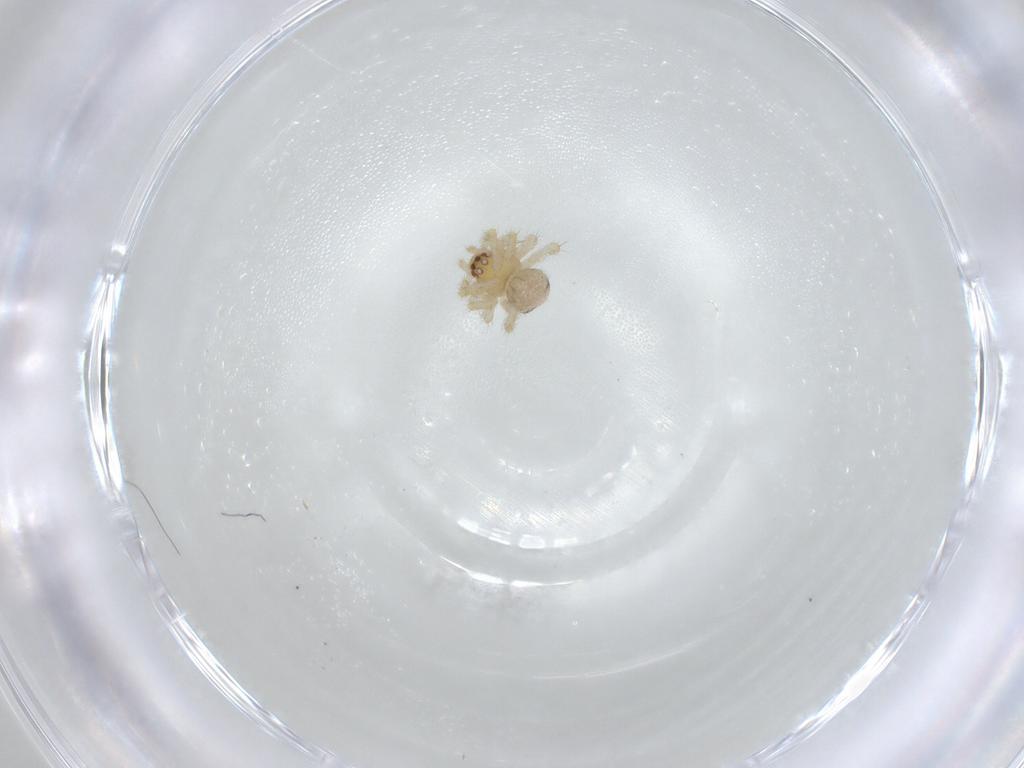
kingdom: Animalia
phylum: Arthropoda
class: Arachnida
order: Araneae
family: Theridiidae
